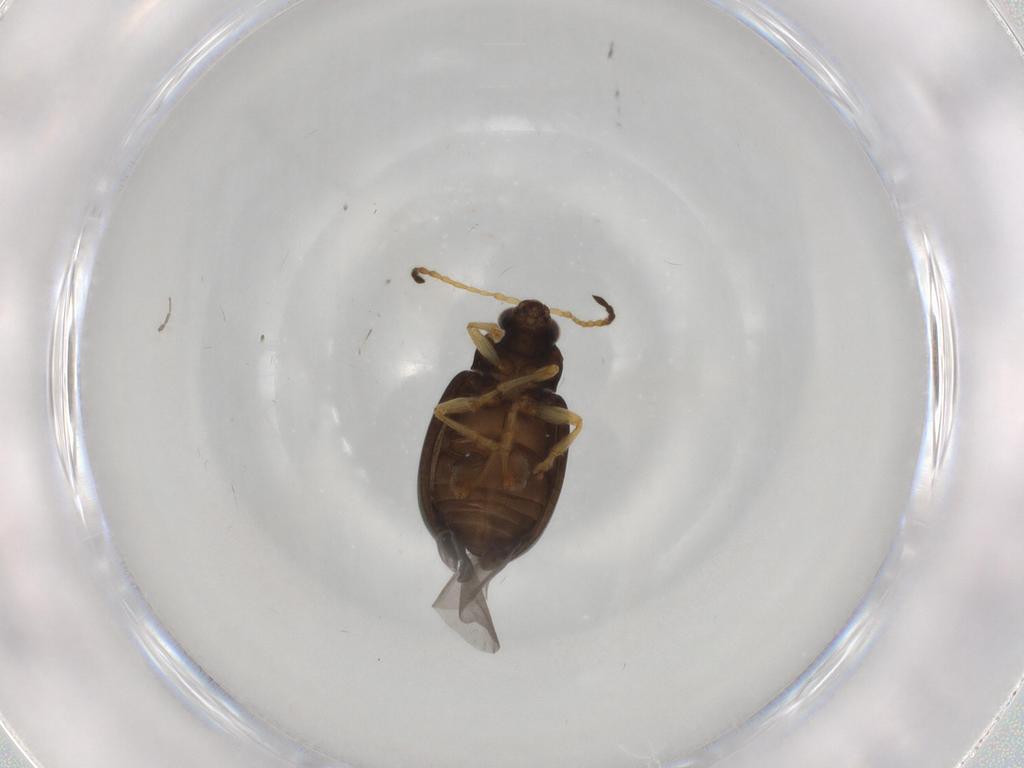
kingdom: Animalia
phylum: Arthropoda
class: Insecta
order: Coleoptera
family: Chrysomelidae
